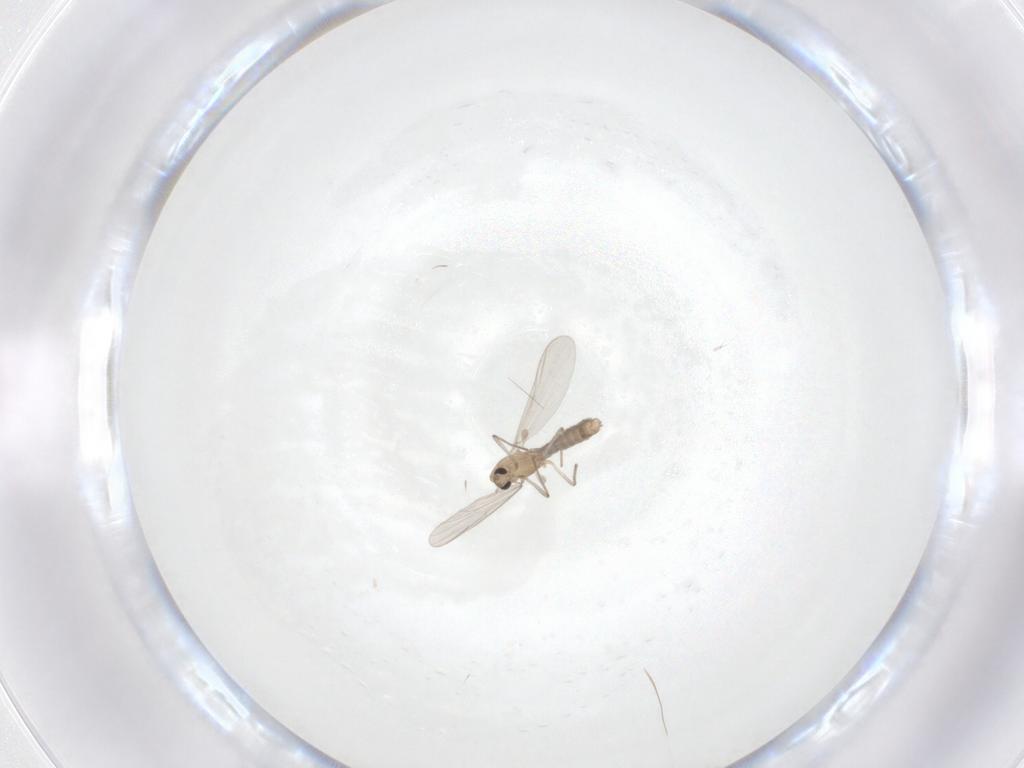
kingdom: Animalia
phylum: Arthropoda
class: Insecta
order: Diptera
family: Chironomidae
